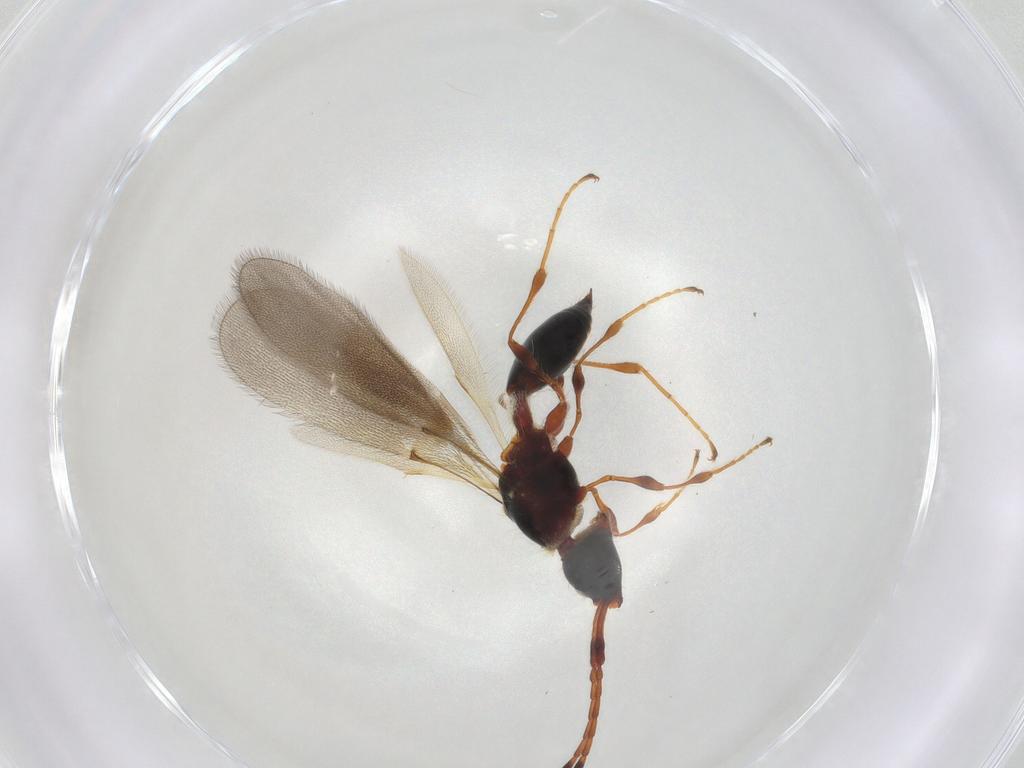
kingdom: Animalia
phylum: Arthropoda
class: Insecta
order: Hymenoptera
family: Diapriidae
